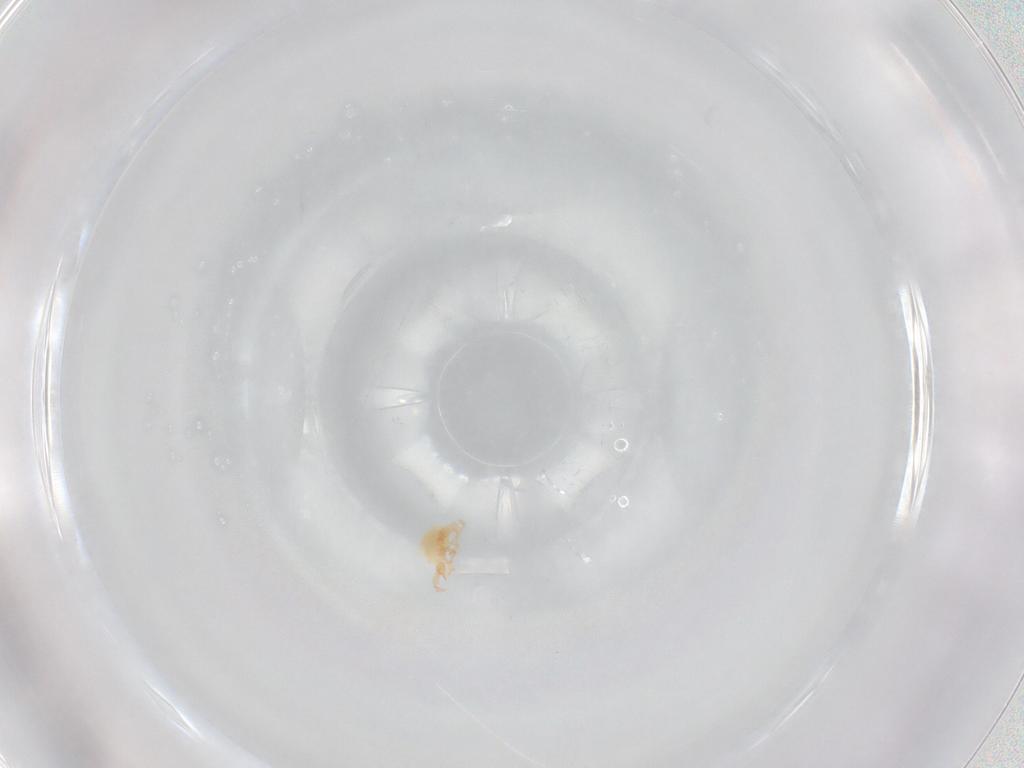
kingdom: Animalia
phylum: Arthropoda
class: Arachnida
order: Trombidiformes
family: Cunaxidae
